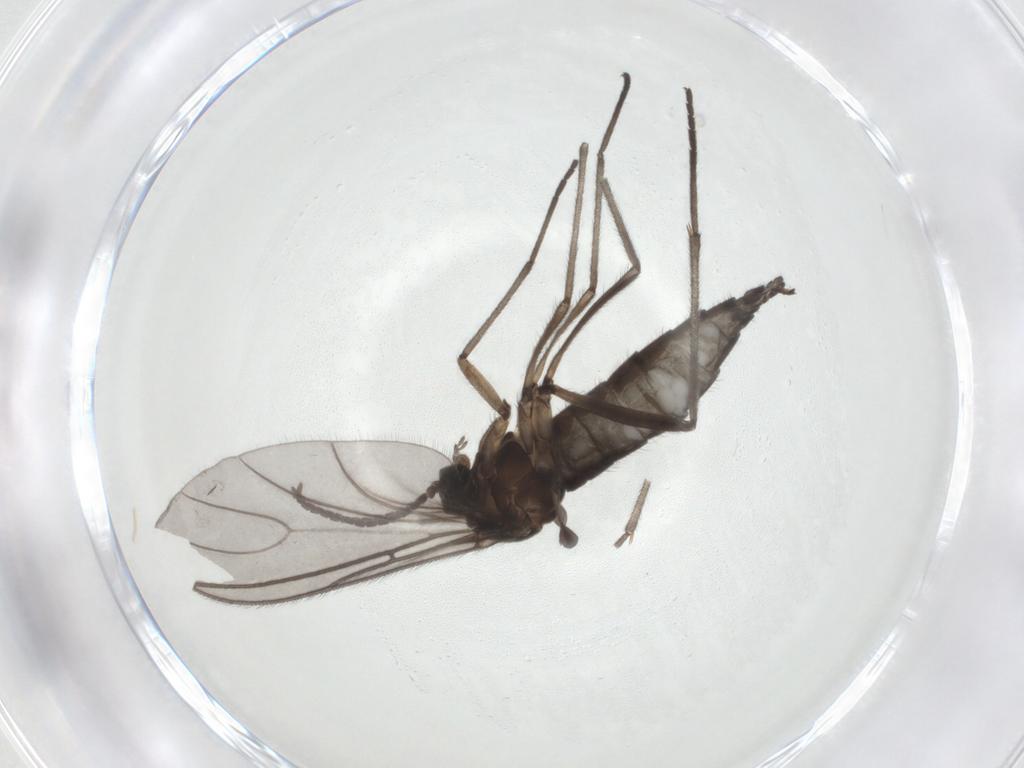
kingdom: Animalia
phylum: Arthropoda
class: Insecta
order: Diptera
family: Sciaridae
